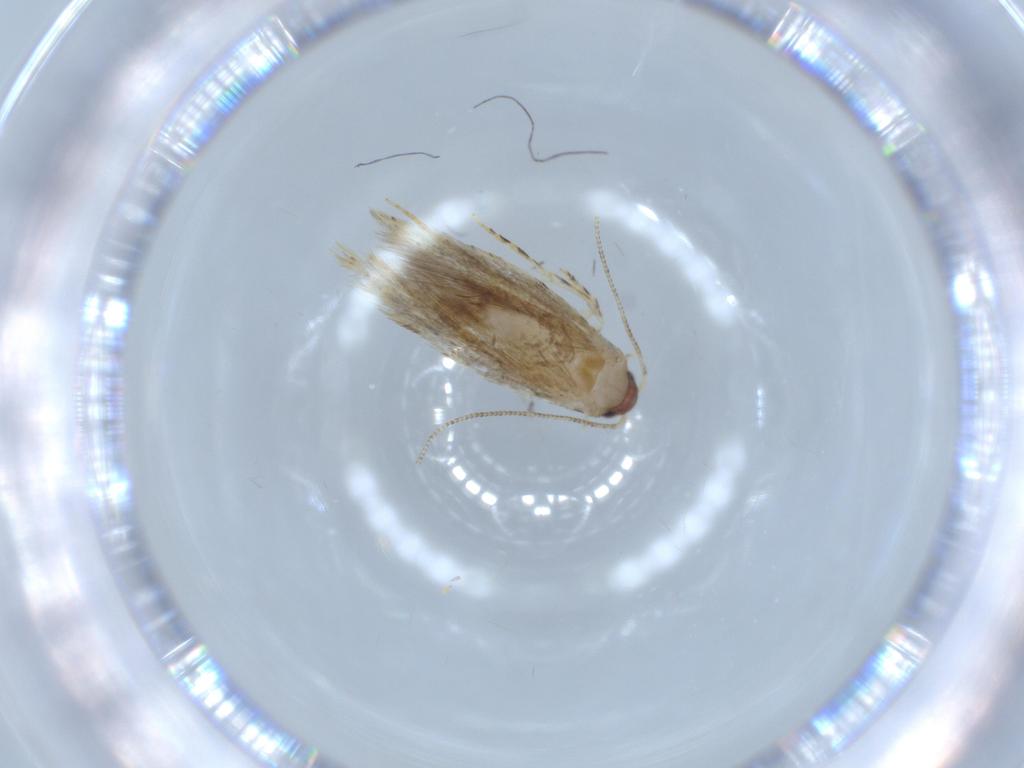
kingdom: Animalia
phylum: Arthropoda
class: Insecta
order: Lepidoptera
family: Tineidae
